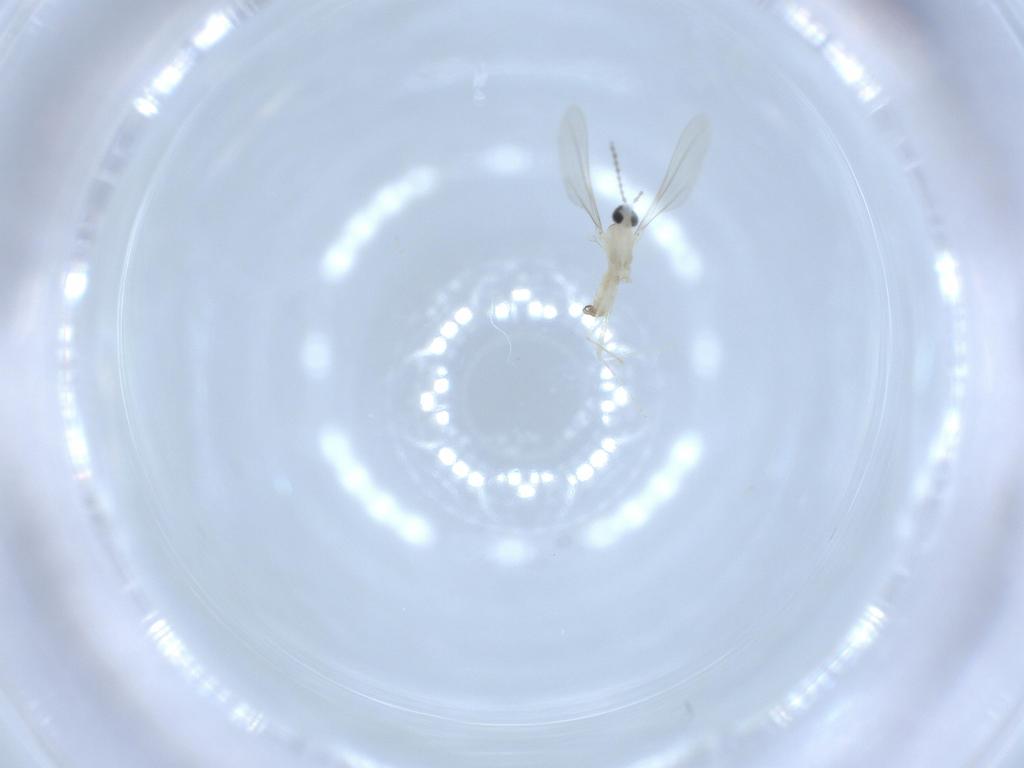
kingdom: Animalia
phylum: Arthropoda
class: Insecta
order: Diptera
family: Cecidomyiidae
